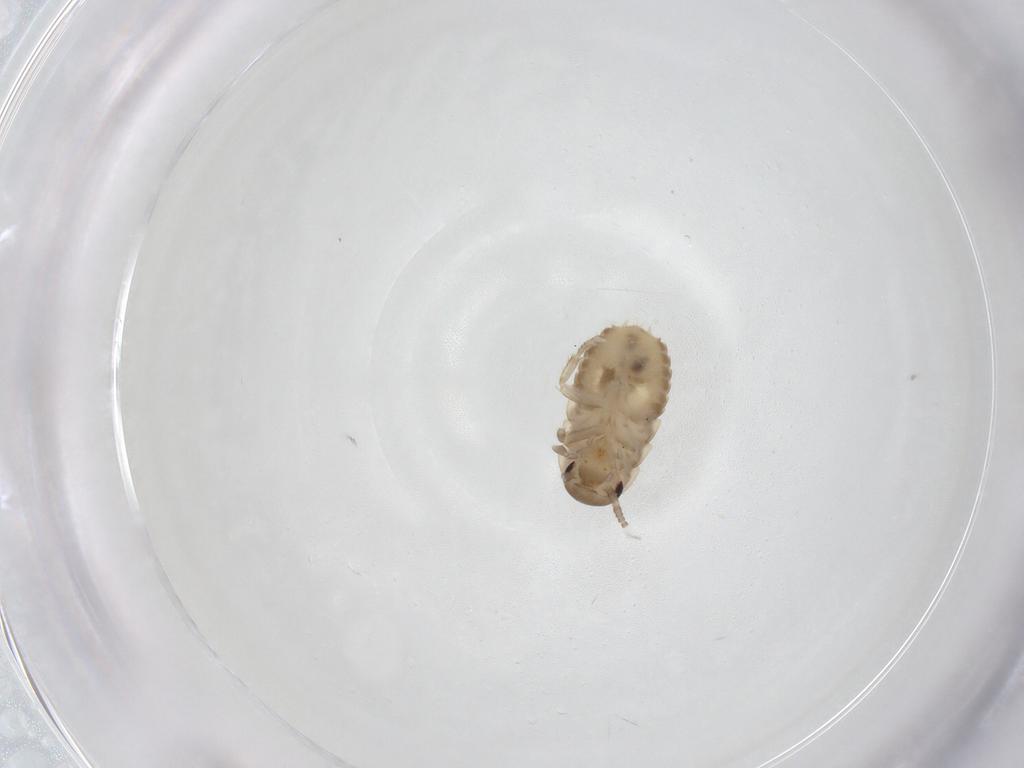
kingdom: Animalia
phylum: Arthropoda
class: Insecta
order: Blattodea
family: Ectobiidae
